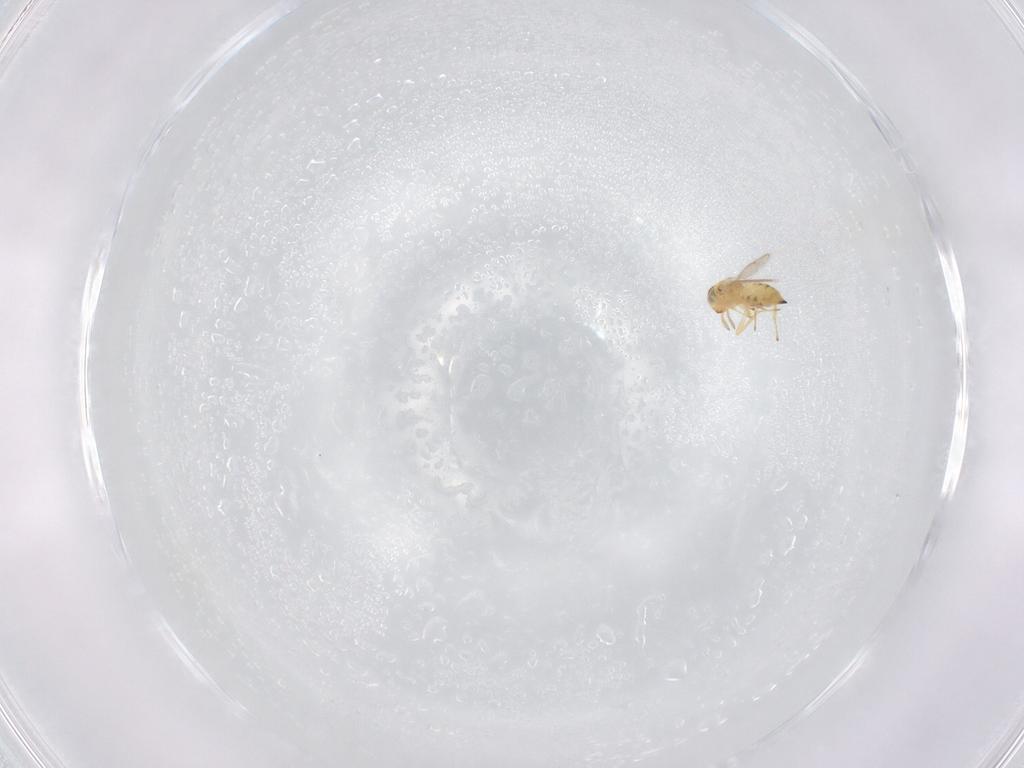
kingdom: Animalia
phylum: Arthropoda
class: Insecta
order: Hymenoptera
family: Eulophidae
